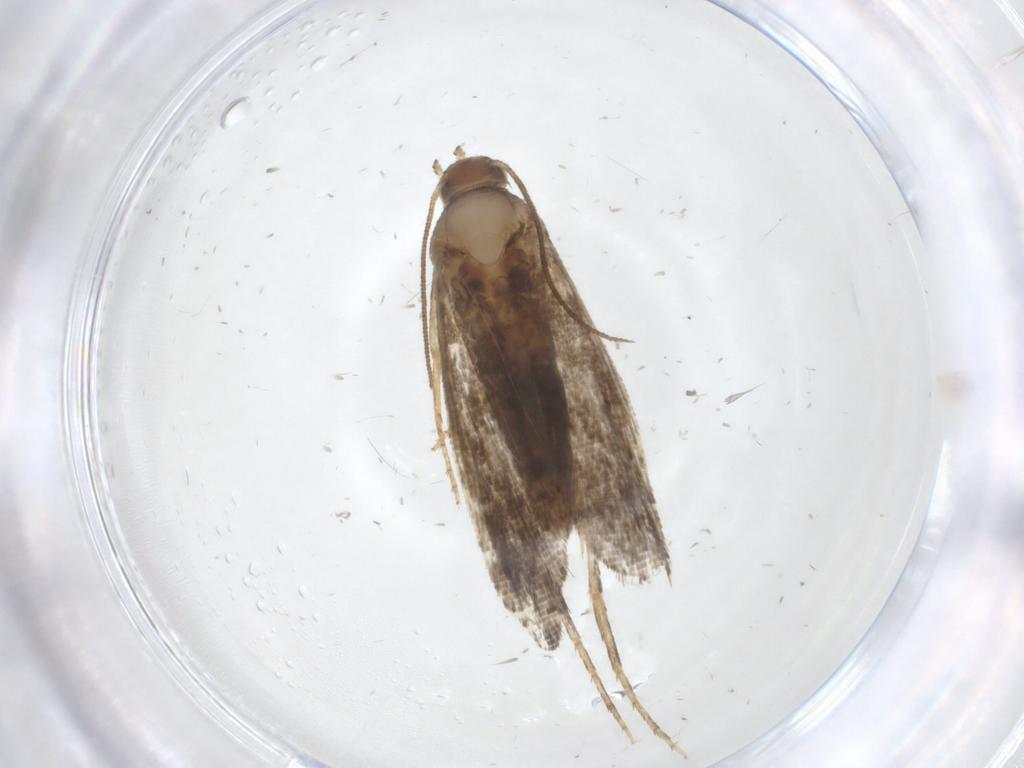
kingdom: Animalia
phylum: Arthropoda
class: Insecta
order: Lepidoptera
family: Momphidae
